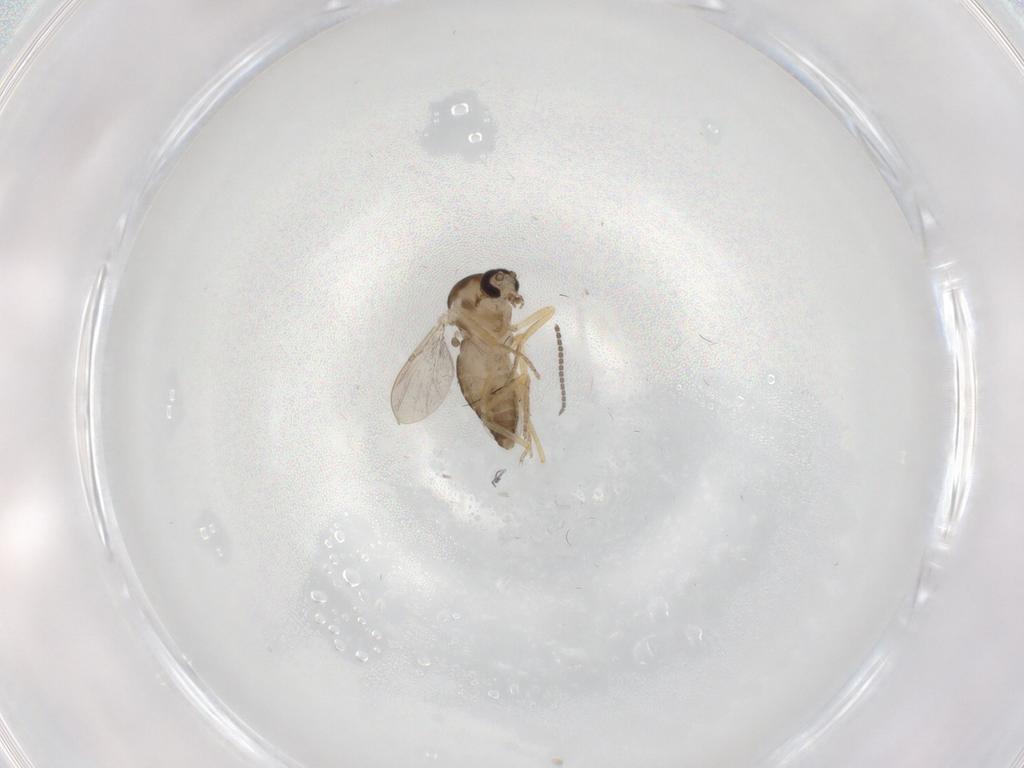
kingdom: Animalia
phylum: Arthropoda
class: Insecta
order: Diptera
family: Ceratopogonidae
